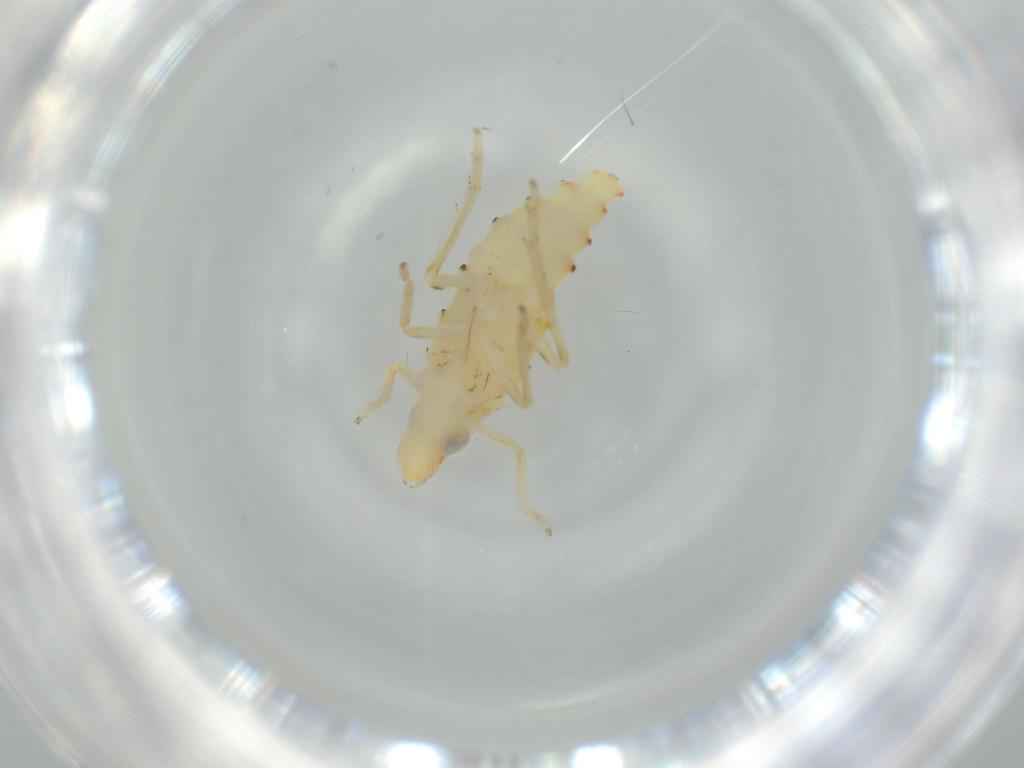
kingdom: Animalia
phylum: Arthropoda
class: Insecta
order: Hemiptera
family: Tropiduchidae
